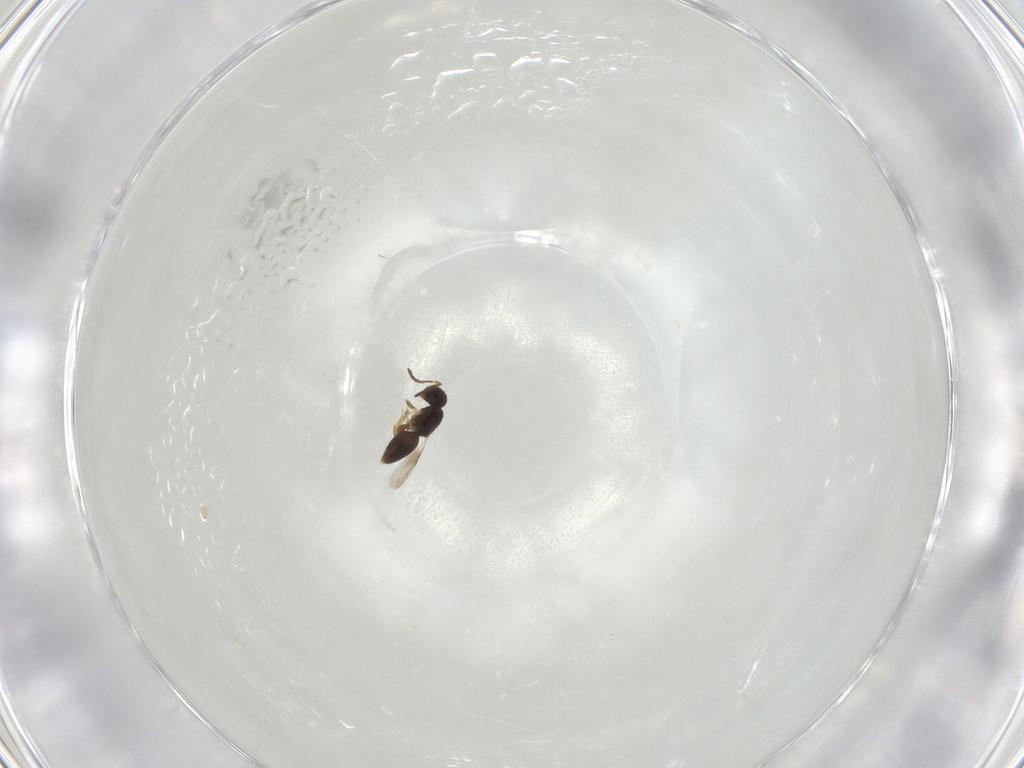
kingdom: Animalia
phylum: Arthropoda
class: Insecta
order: Hymenoptera
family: Ceraphronidae
